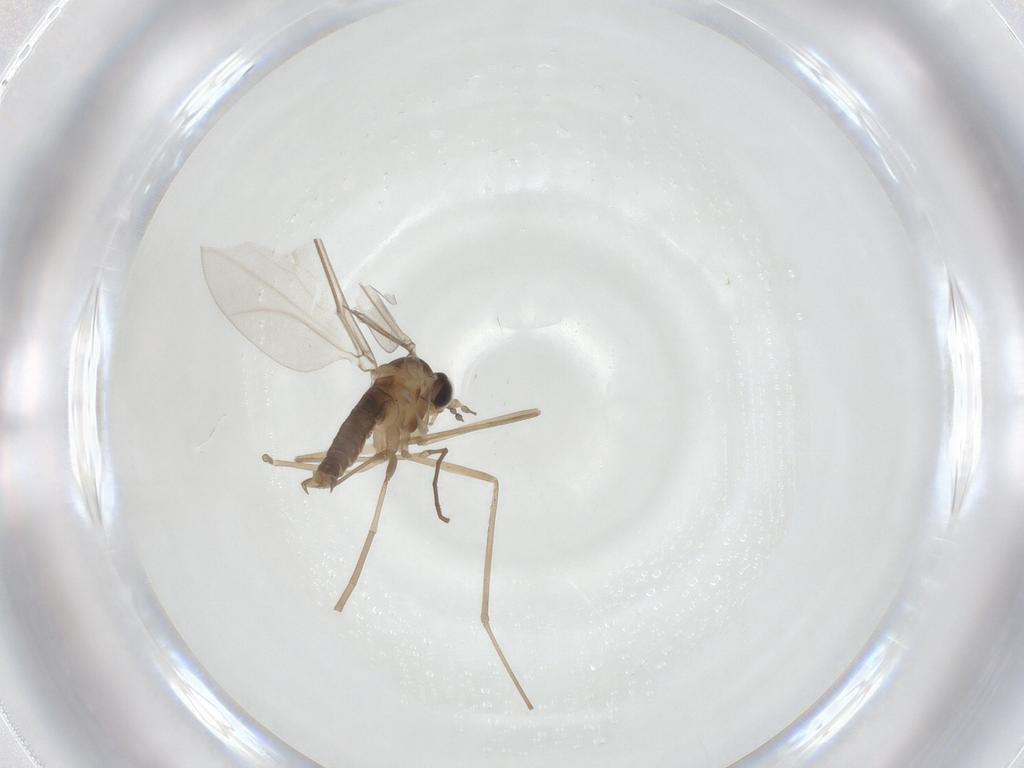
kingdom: Animalia
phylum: Arthropoda
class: Insecta
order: Diptera
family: Cecidomyiidae
